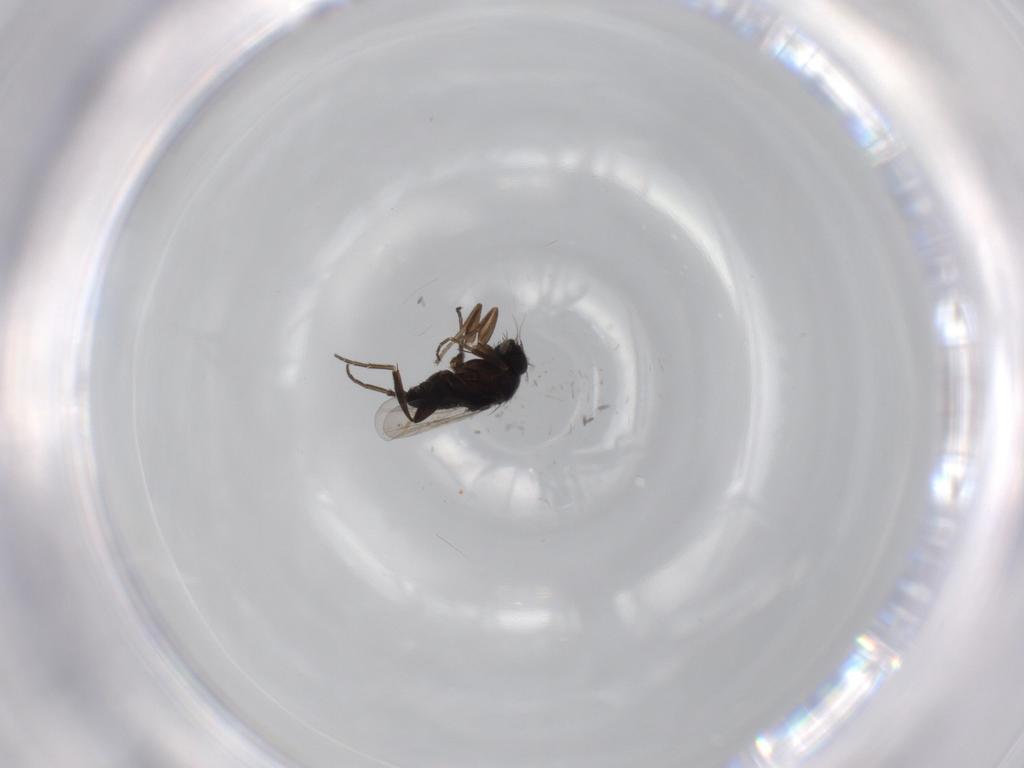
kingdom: Animalia
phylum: Arthropoda
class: Insecta
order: Diptera
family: Phoridae
